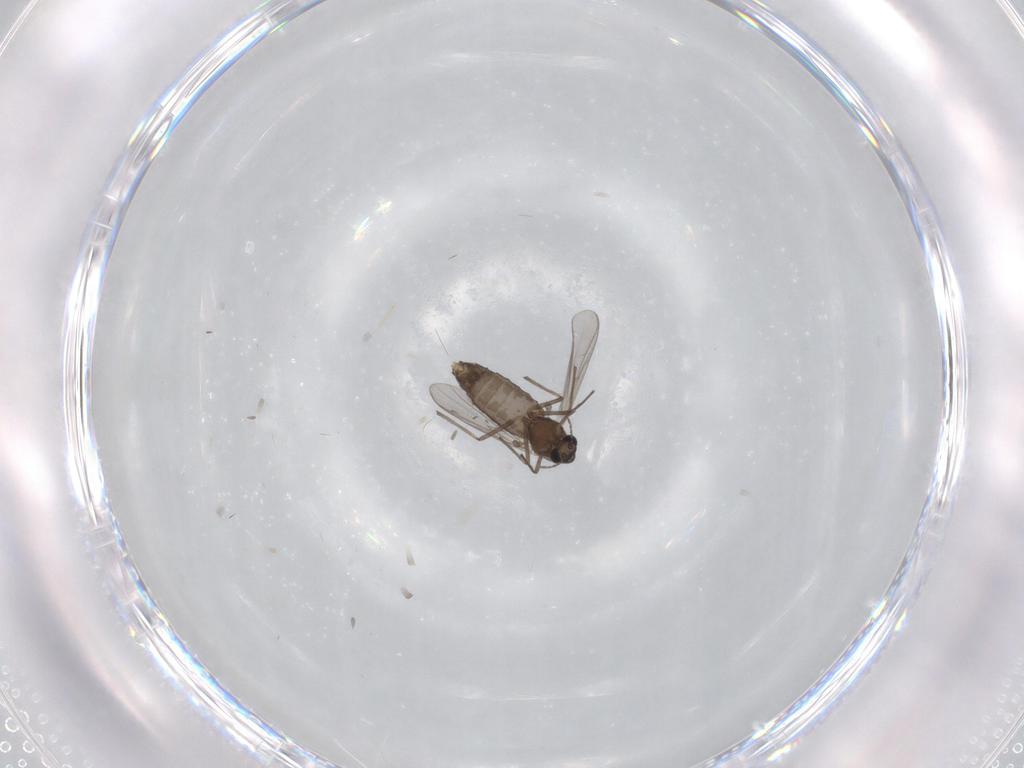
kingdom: Animalia
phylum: Arthropoda
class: Insecta
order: Diptera
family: Chironomidae
